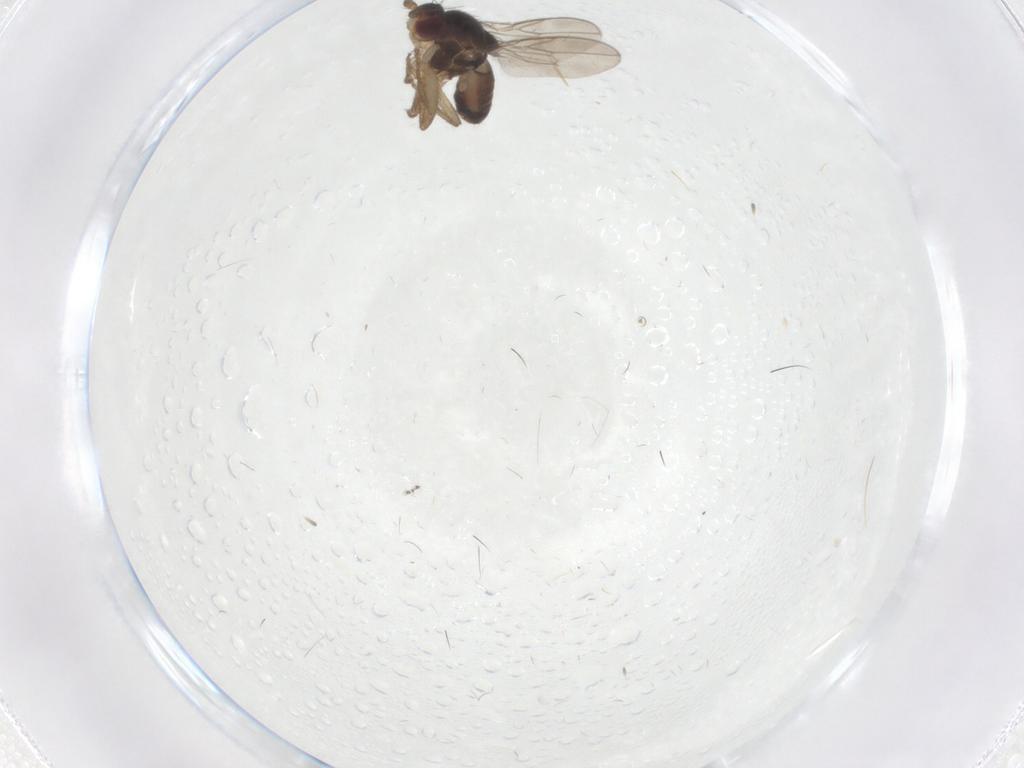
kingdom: Animalia
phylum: Arthropoda
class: Insecta
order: Diptera
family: Sphaeroceridae
